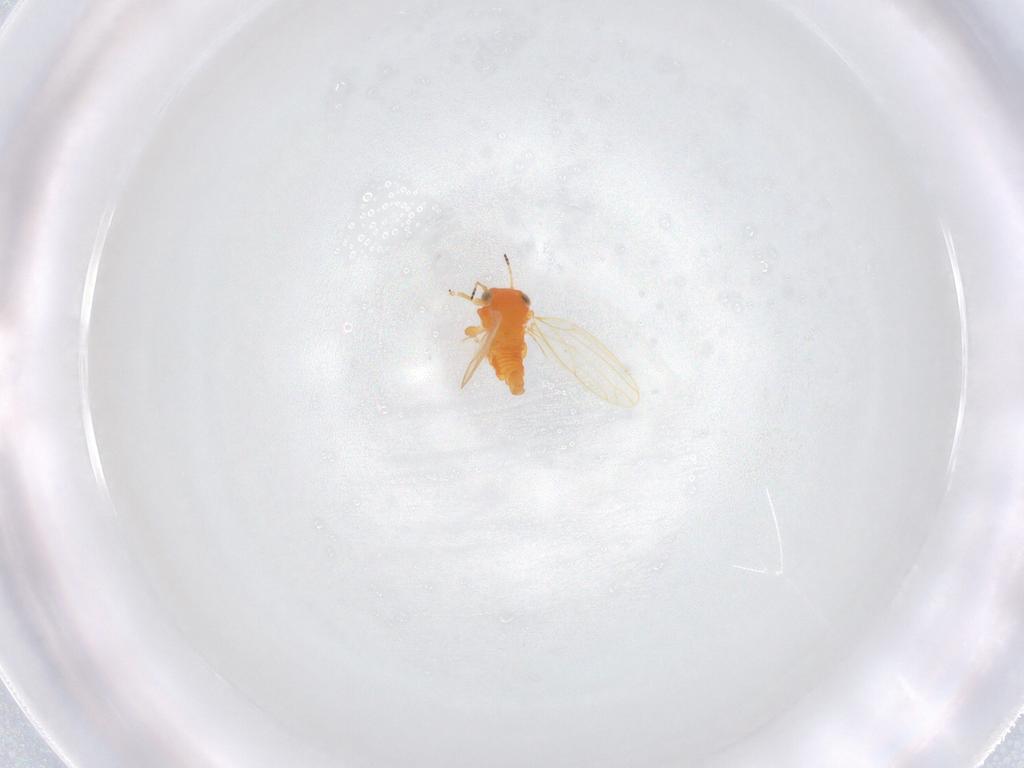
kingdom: Animalia
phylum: Arthropoda
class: Insecta
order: Hemiptera
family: Aphalaridae
